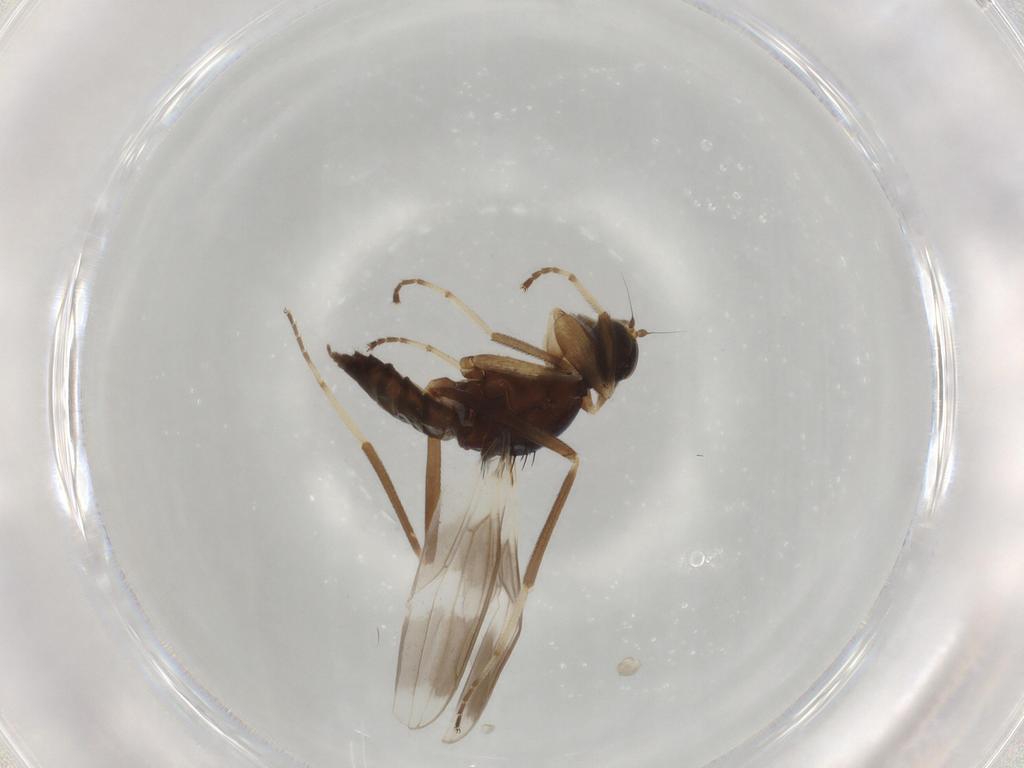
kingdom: Animalia
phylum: Arthropoda
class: Insecta
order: Diptera
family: Hybotidae
